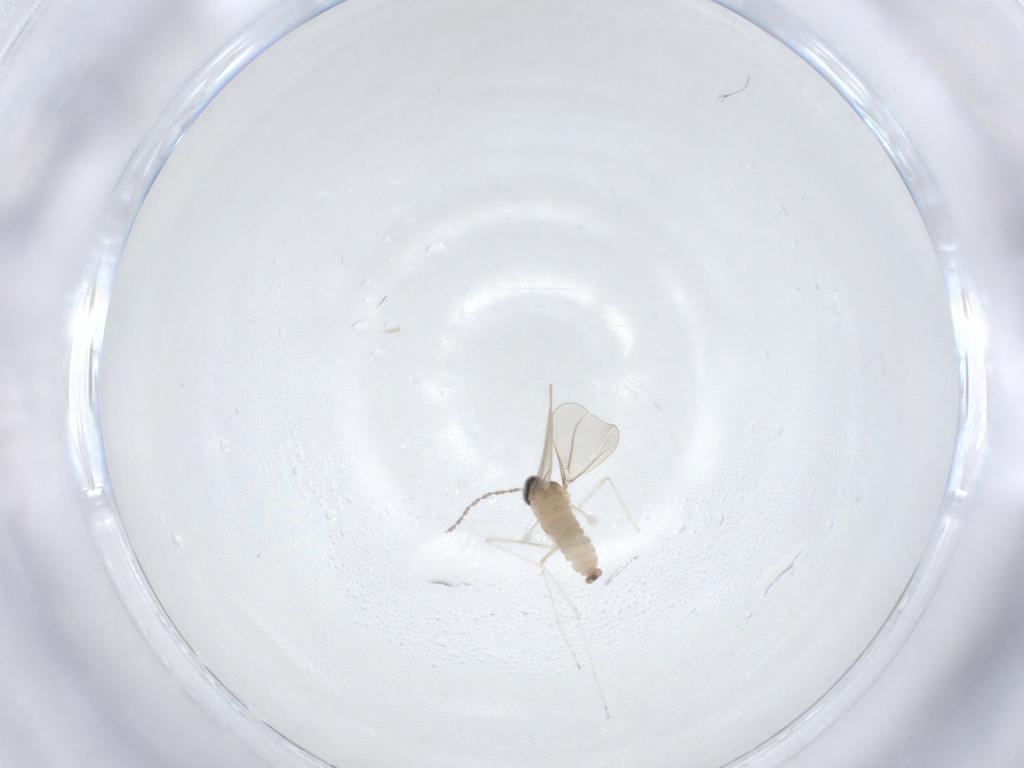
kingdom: Animalia
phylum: Arthropoda
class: Insecta
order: Diptera
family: Cecidomyiidae
